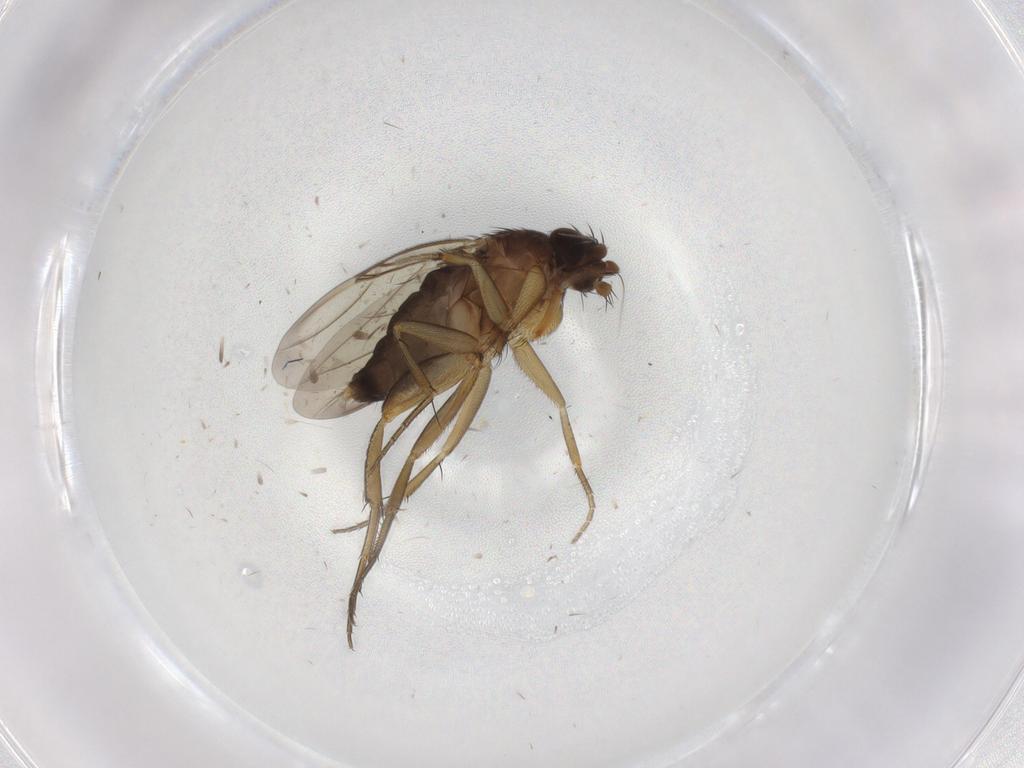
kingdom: Animalia
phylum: Arthropoda
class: Insecta
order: Diptera
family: Phoridae
